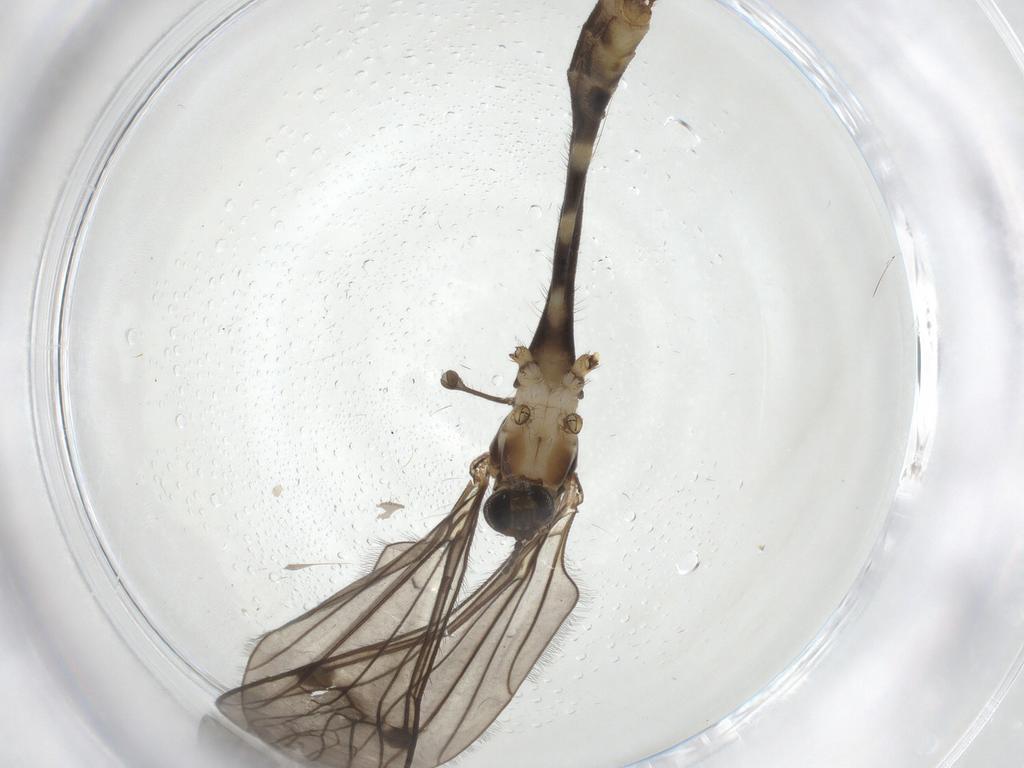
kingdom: Animalia
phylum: Arthropoda
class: Insecta
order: Diptera
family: Psychodidae
